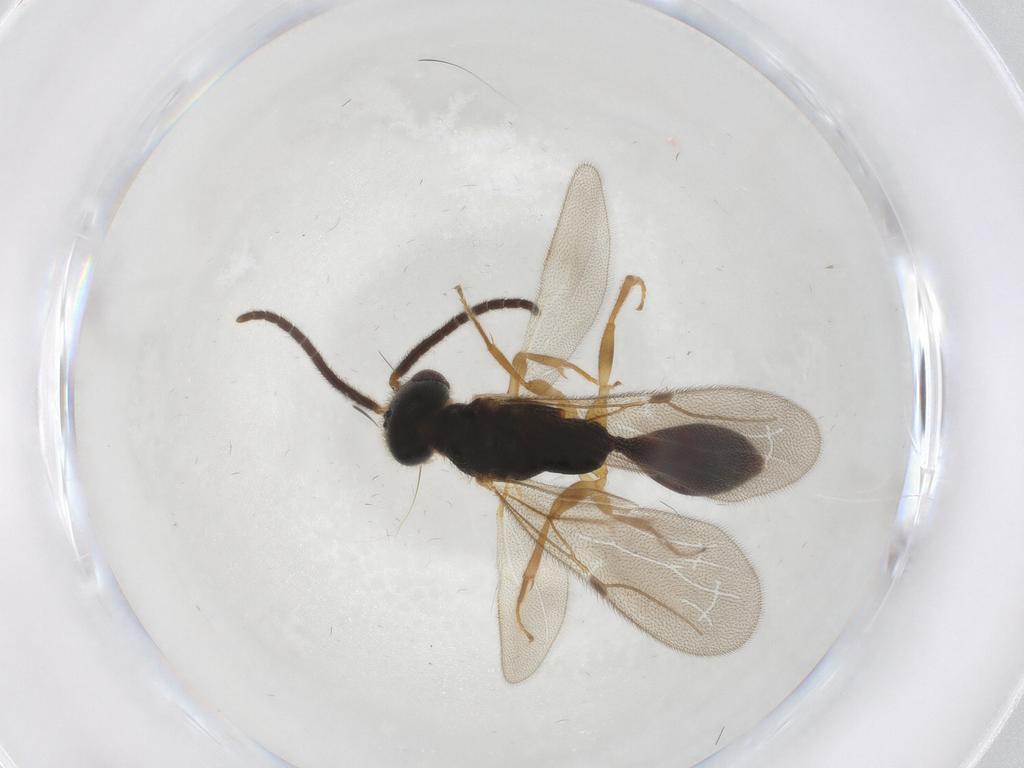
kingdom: Animalia
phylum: Arthropoda
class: Insecta
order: Hymenoptera
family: Bethylidae
